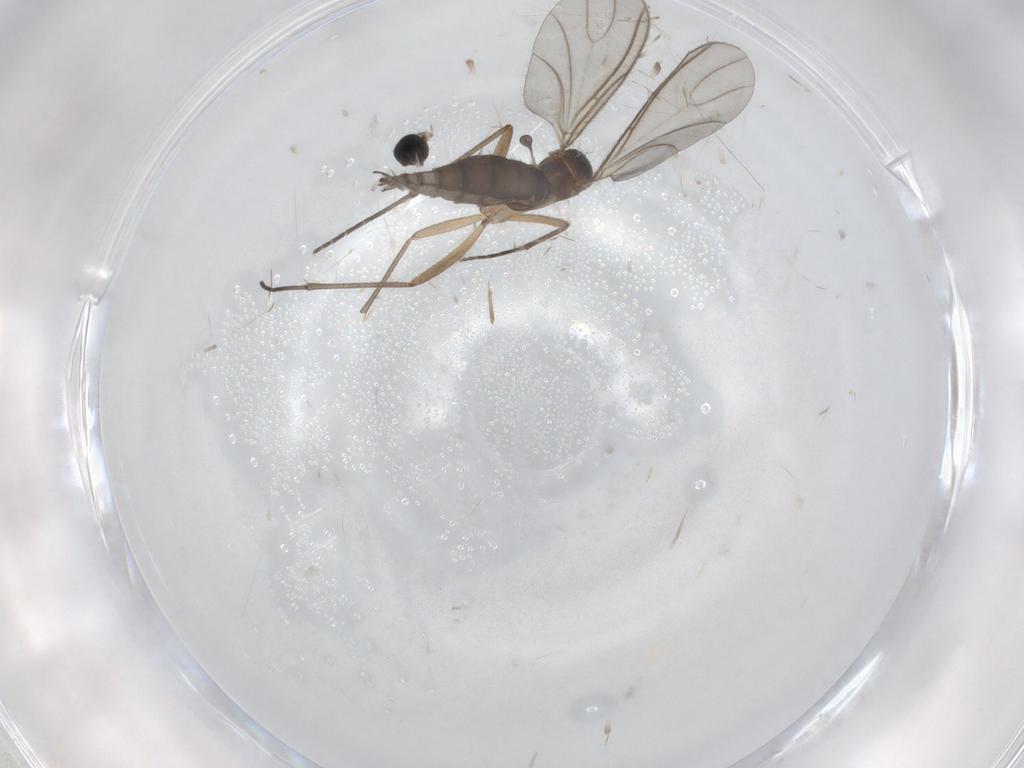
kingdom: Animalia
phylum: Arthropoda
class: Insecta
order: Diptera
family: Sciaridae
